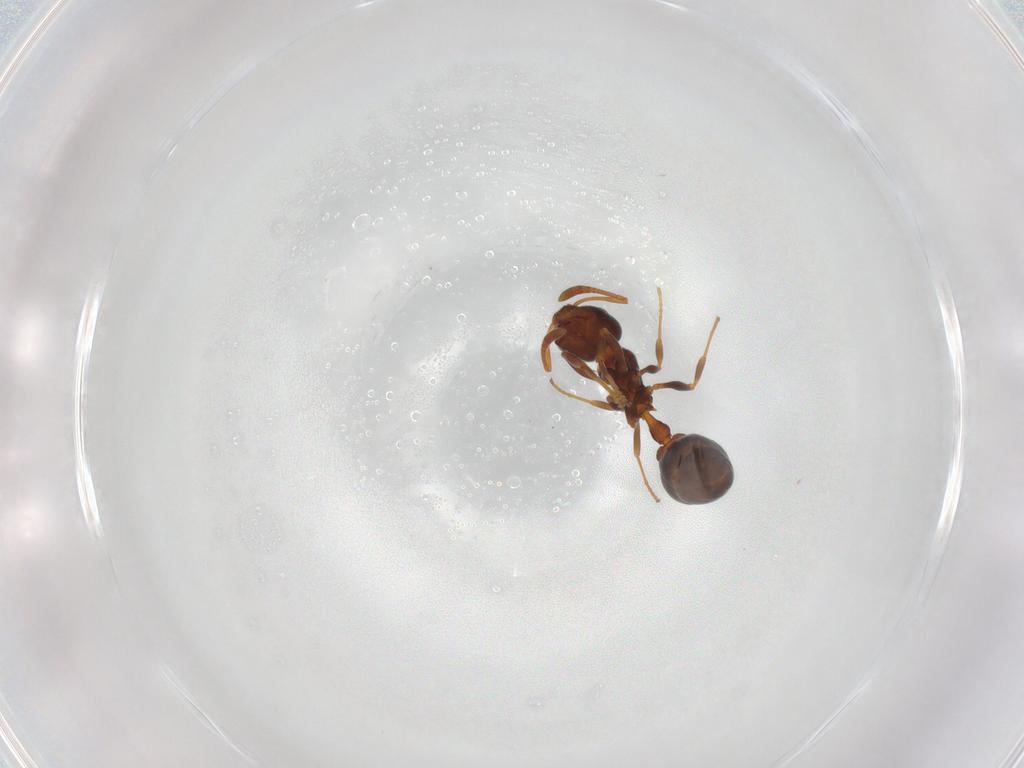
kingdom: Animalia
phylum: Arthropoda
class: Insecta
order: Hymenoptera
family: Formicidae
